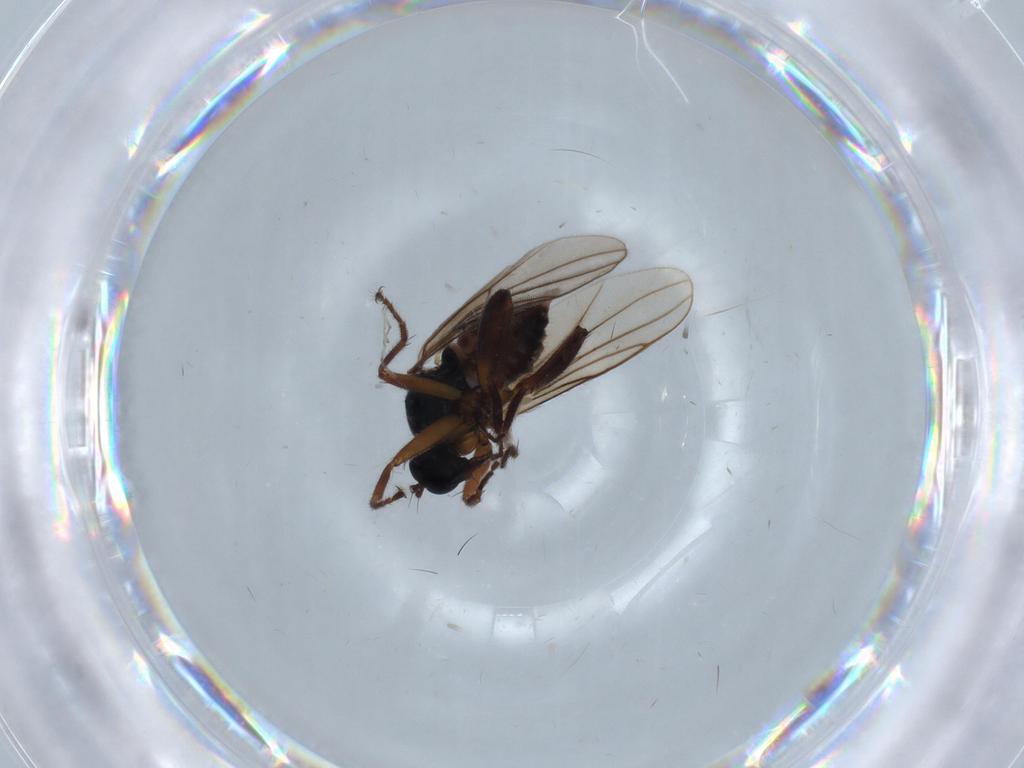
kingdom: Animalia
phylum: Arthropoda
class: Insecta
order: Diptera
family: Hybotidae
